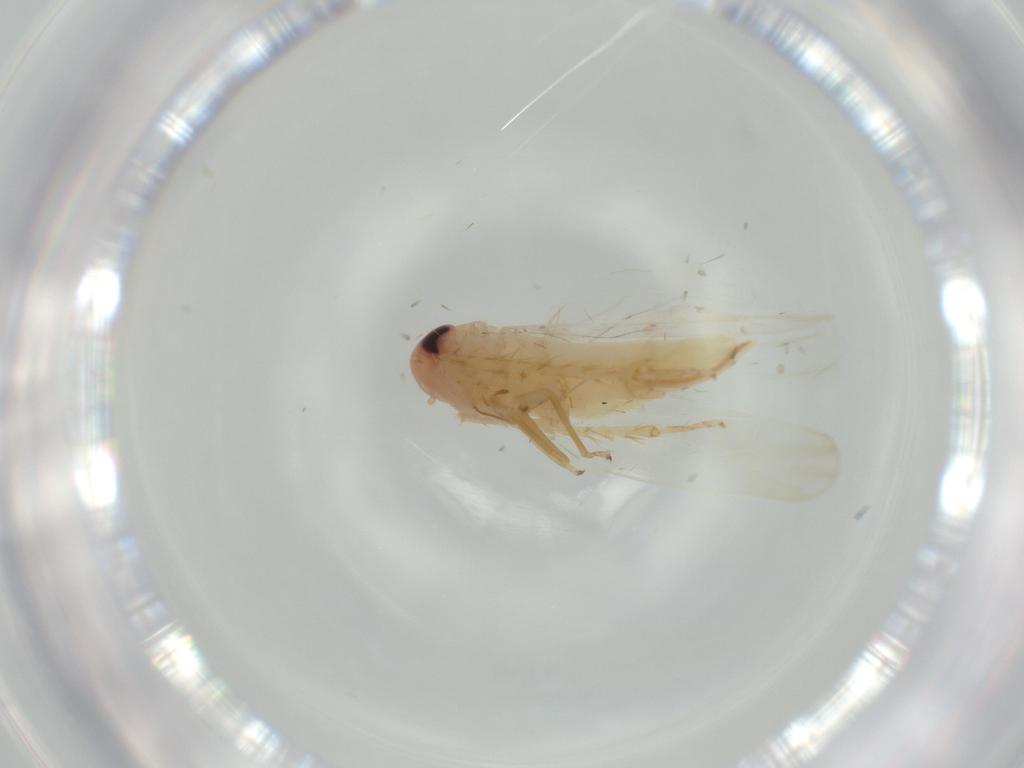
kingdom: Animalia
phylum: Arthropoda
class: Insecta
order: Hemiptera
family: Cicadellidae
